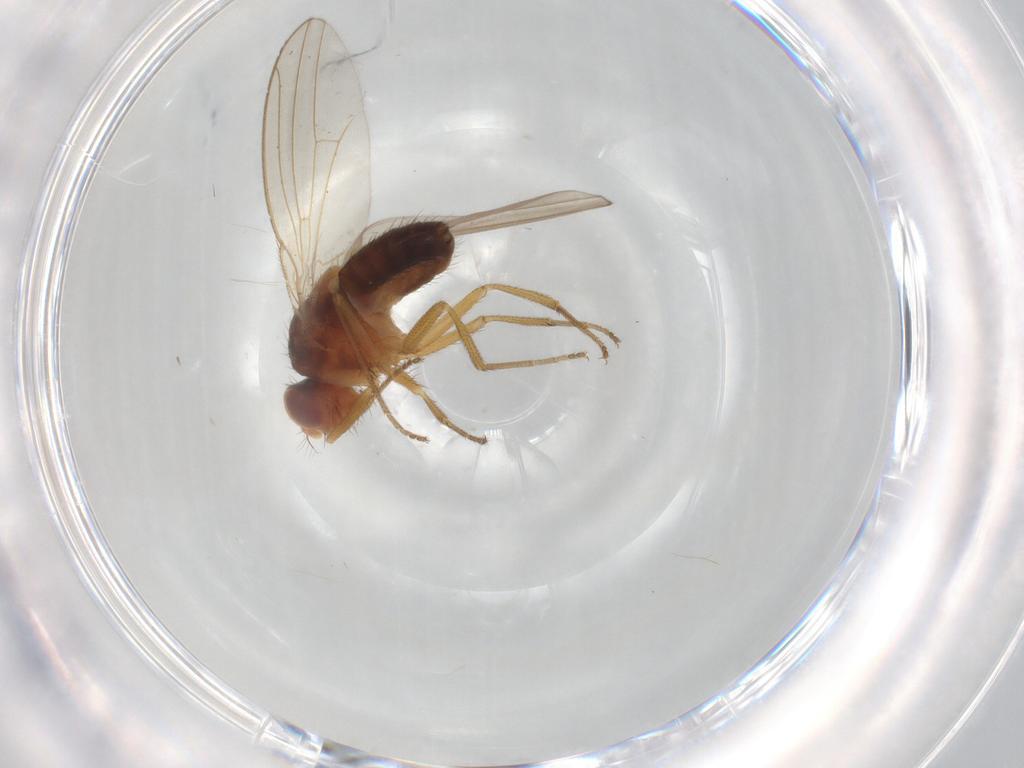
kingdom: Animalia
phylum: Arthropoda
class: Insecta
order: Diptera
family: Drosophilidae
